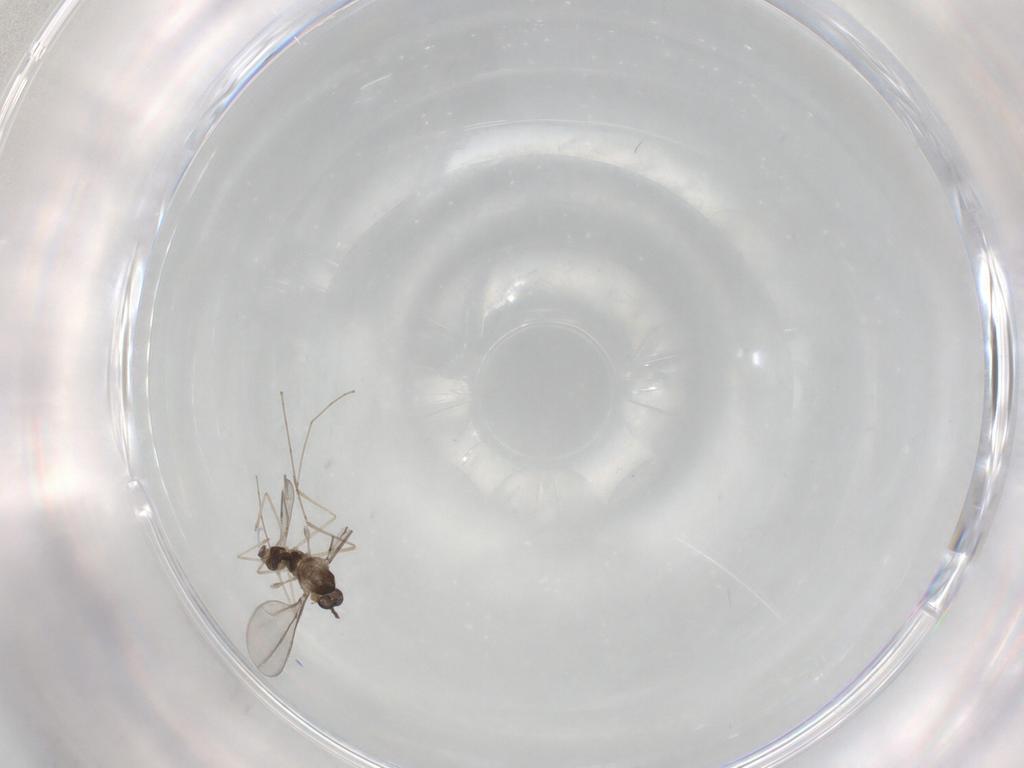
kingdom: Animalia
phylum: Arthropoda
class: Insecta
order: Diptera
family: Cecidomyiidae
